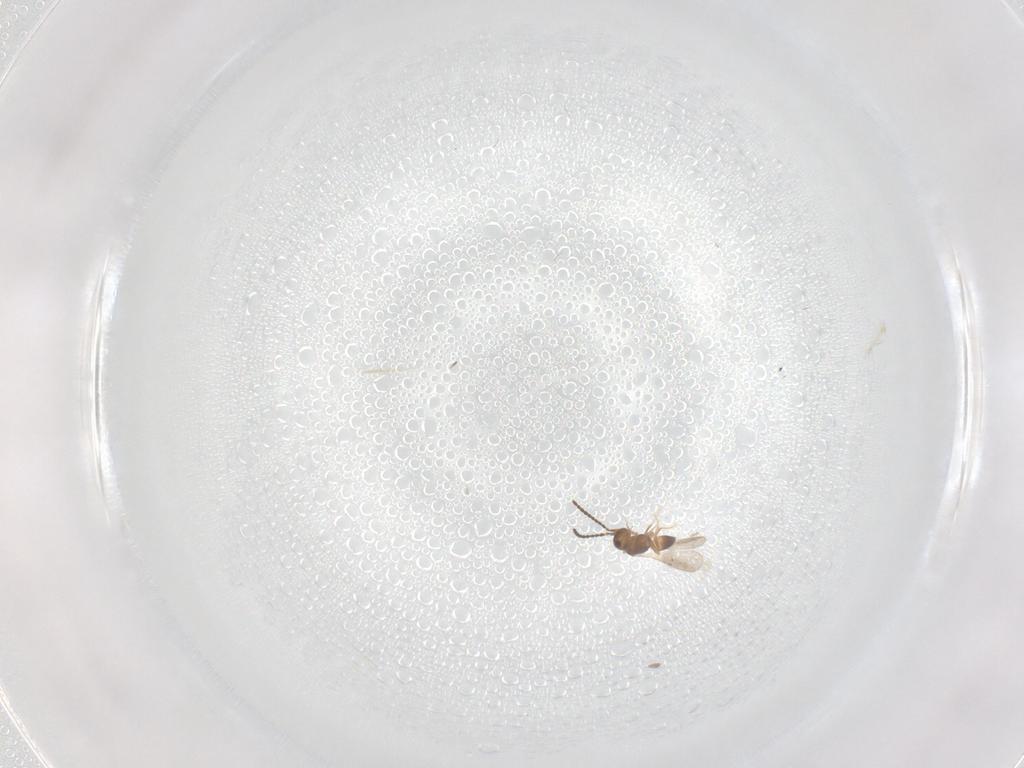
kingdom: Animalia
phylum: Arthropoda
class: Insecta
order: Hymenoptera
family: Ceraphronidae
